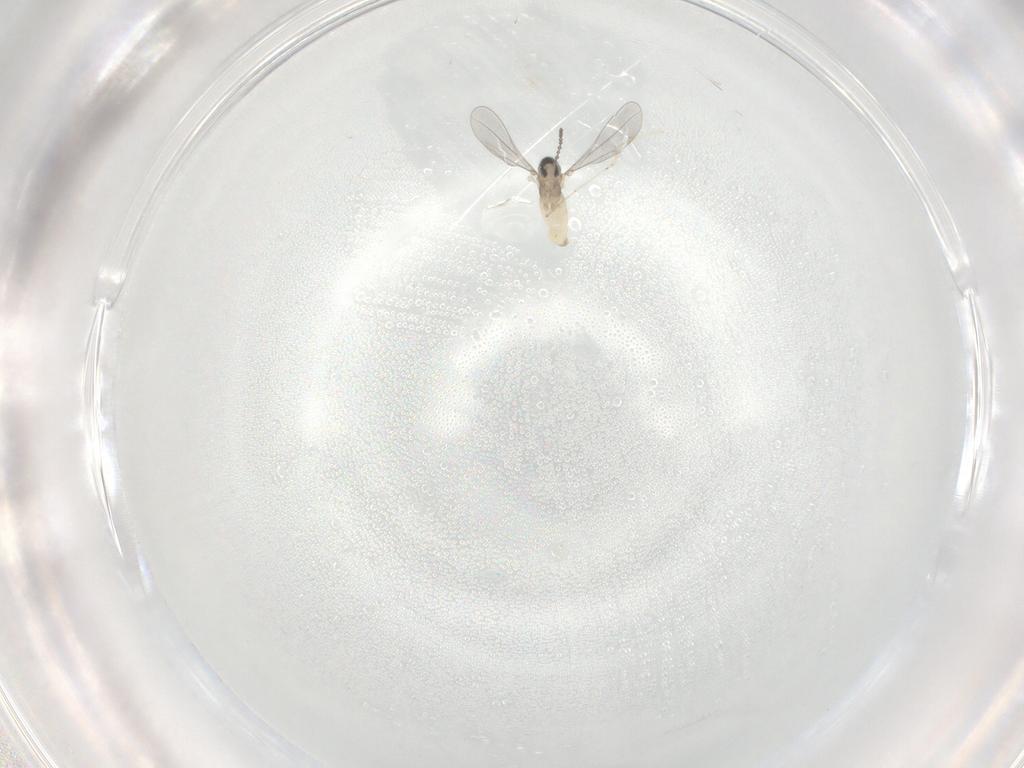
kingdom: Animalia
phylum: Arthropoda
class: Insecta
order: Diptera
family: Cecidomyiidae
